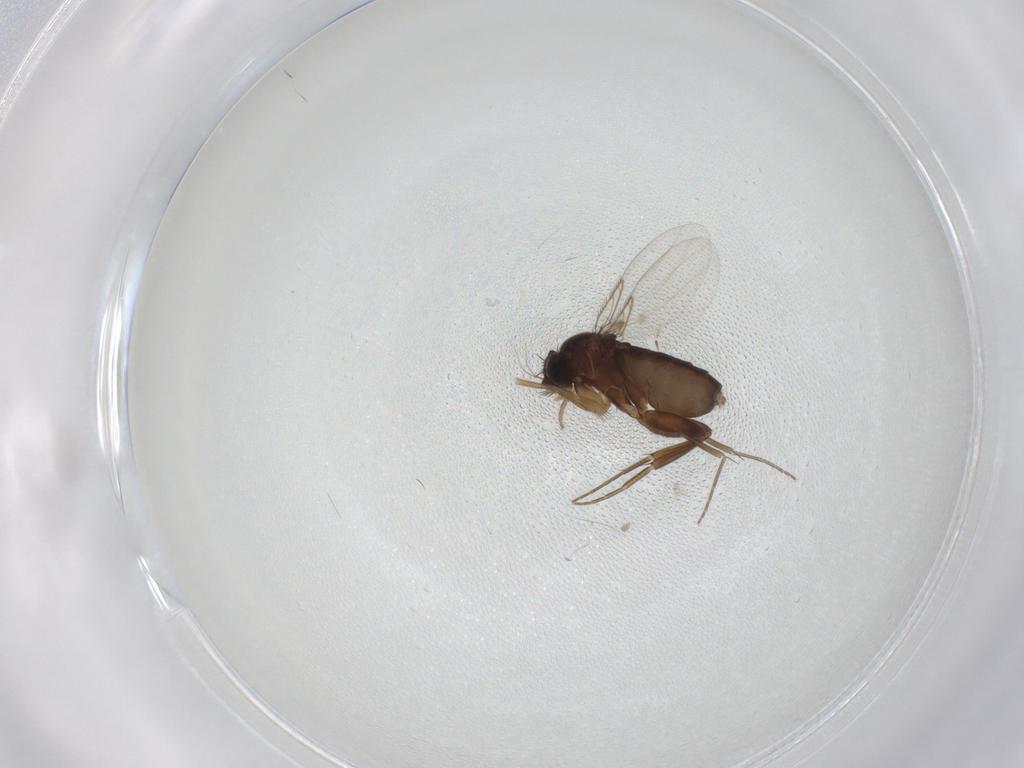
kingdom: Animalia
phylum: Arthropoda
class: Insecta
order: Diptera
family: Phoridae
